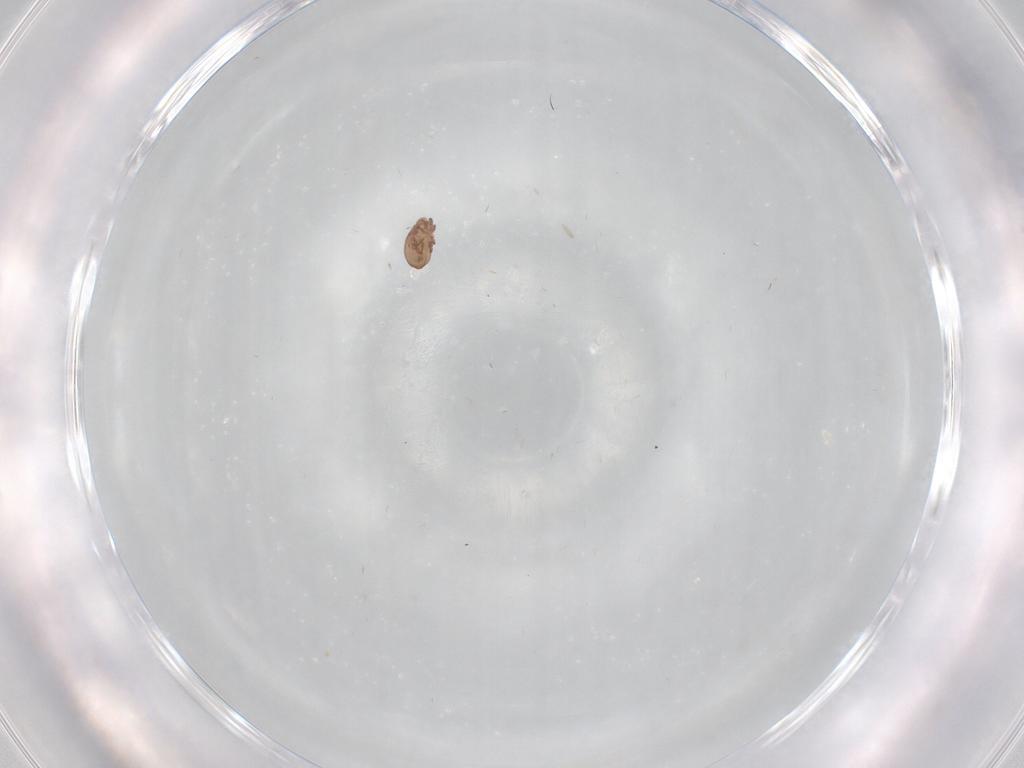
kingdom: Animalia
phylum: Arthropoda
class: Arachnida
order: Sarcoptiformes
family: Eremaeidae
